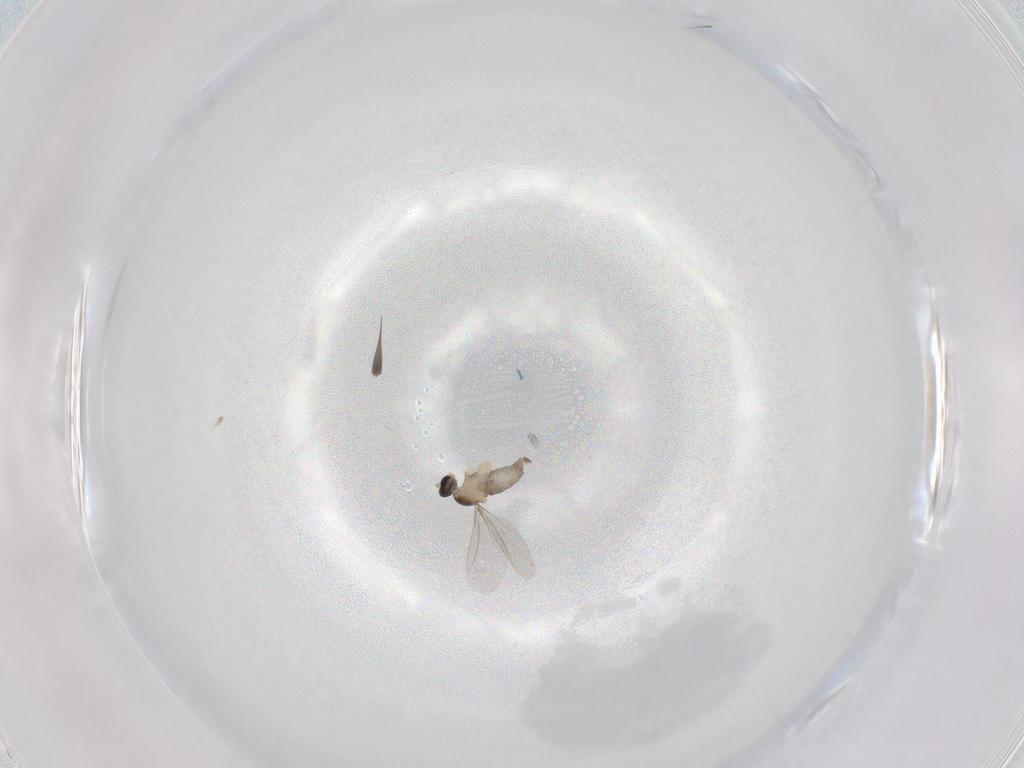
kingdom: Animalia
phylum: Arthropoda
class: Insecta
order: Diptera
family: Cecidomyiidae
